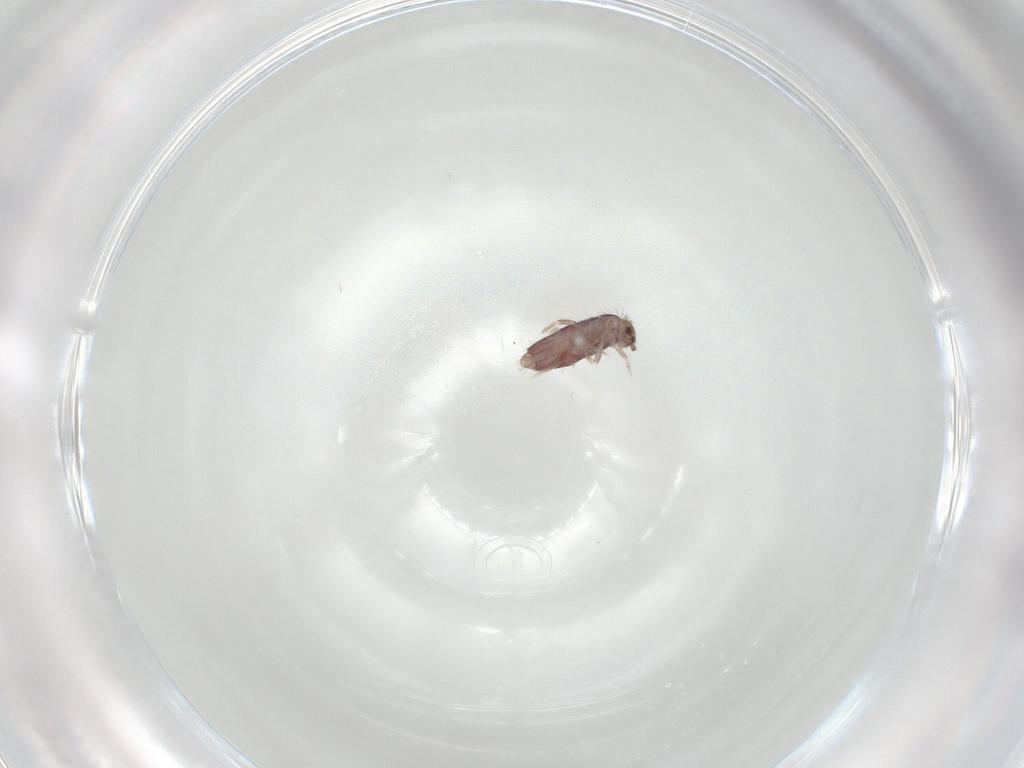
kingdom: Animalia
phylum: Arthropoda
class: Collembola
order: Entomobryomorpha
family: Entomobryidae
